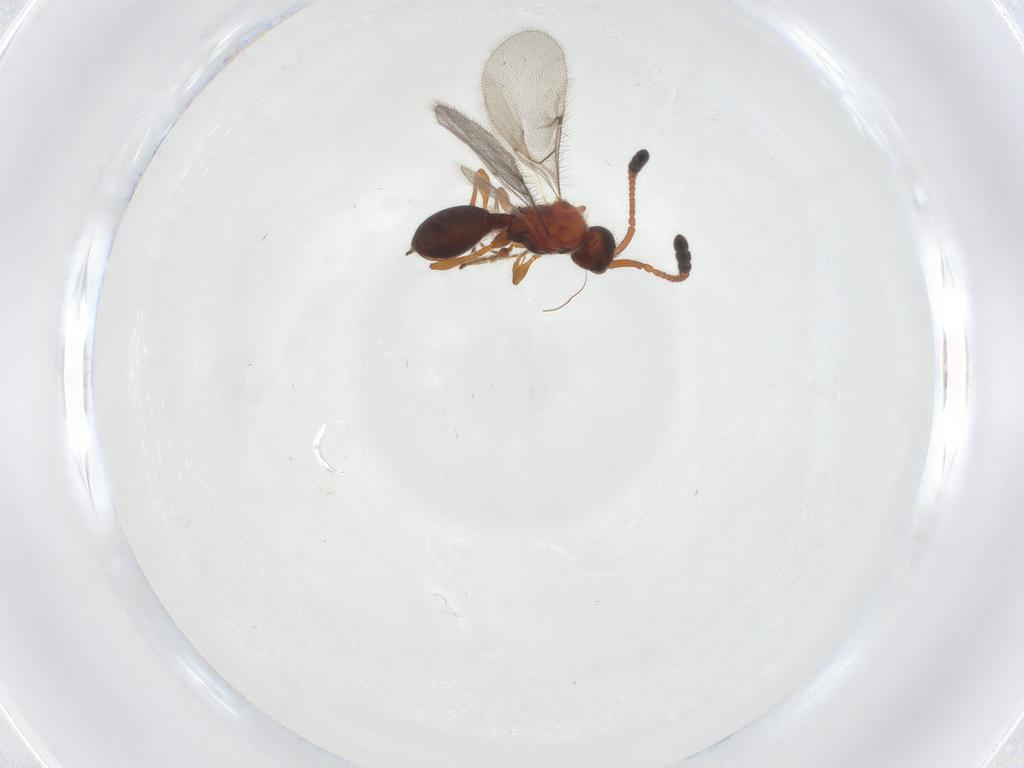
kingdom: Animalia
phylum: Arthropoda
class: Insecta
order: Hymenoptera
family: Diapriidae
